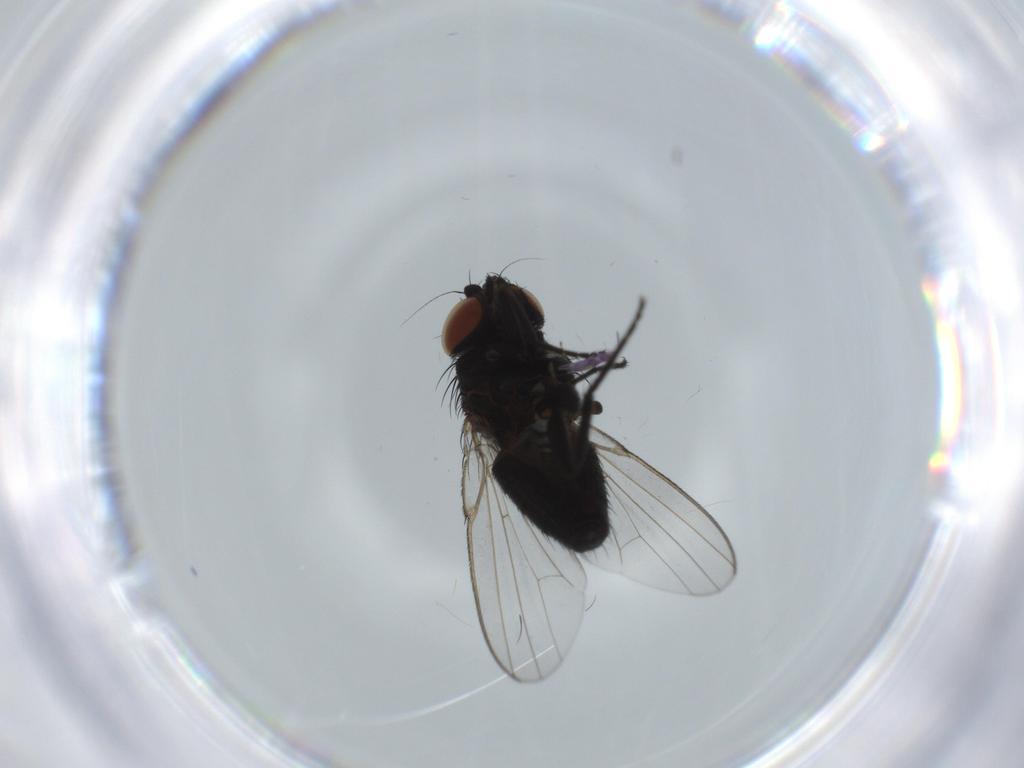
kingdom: Animalia
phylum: Arthropoda
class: Insecta
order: Diptera
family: Milichiidae
